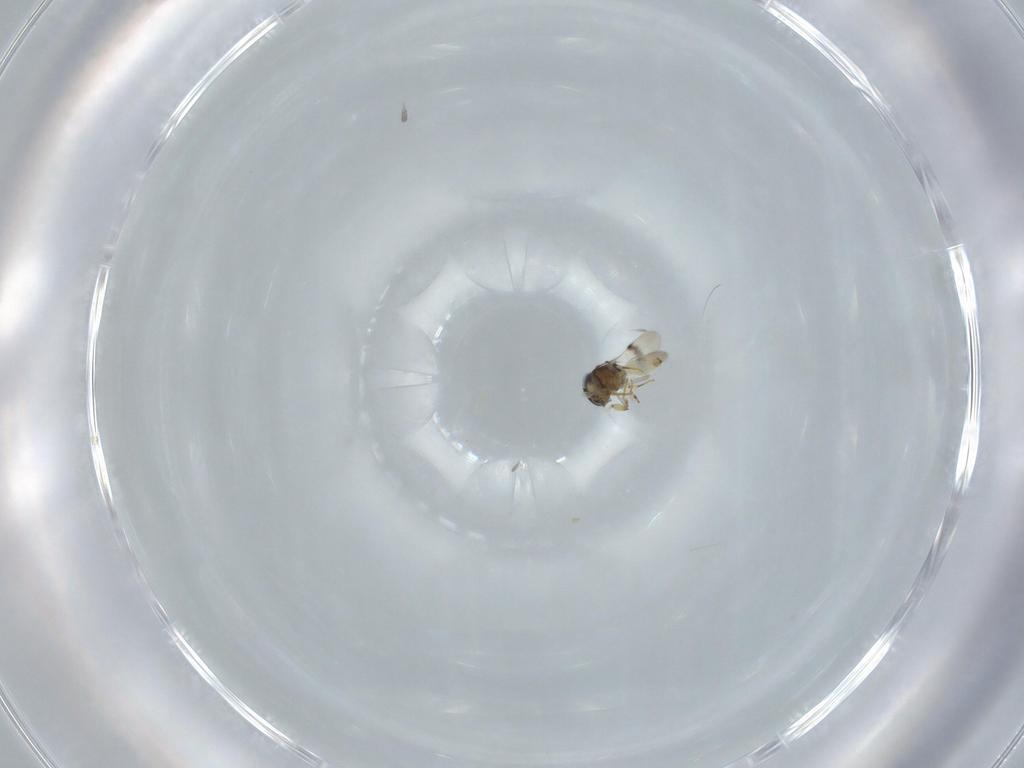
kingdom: Animalia
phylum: Arthropoda
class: Insecta
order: Hymenoptera
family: Scelionidae
